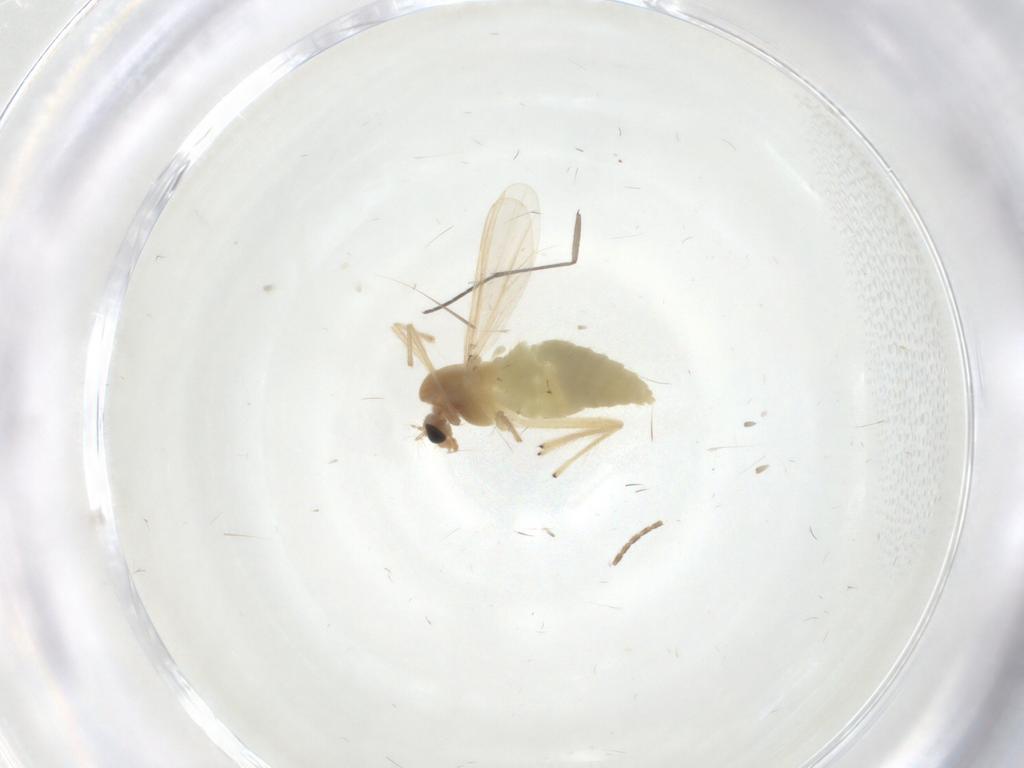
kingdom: Animalia
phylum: Arthropoda
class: Insecta
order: Diptera
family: Chironomidae
